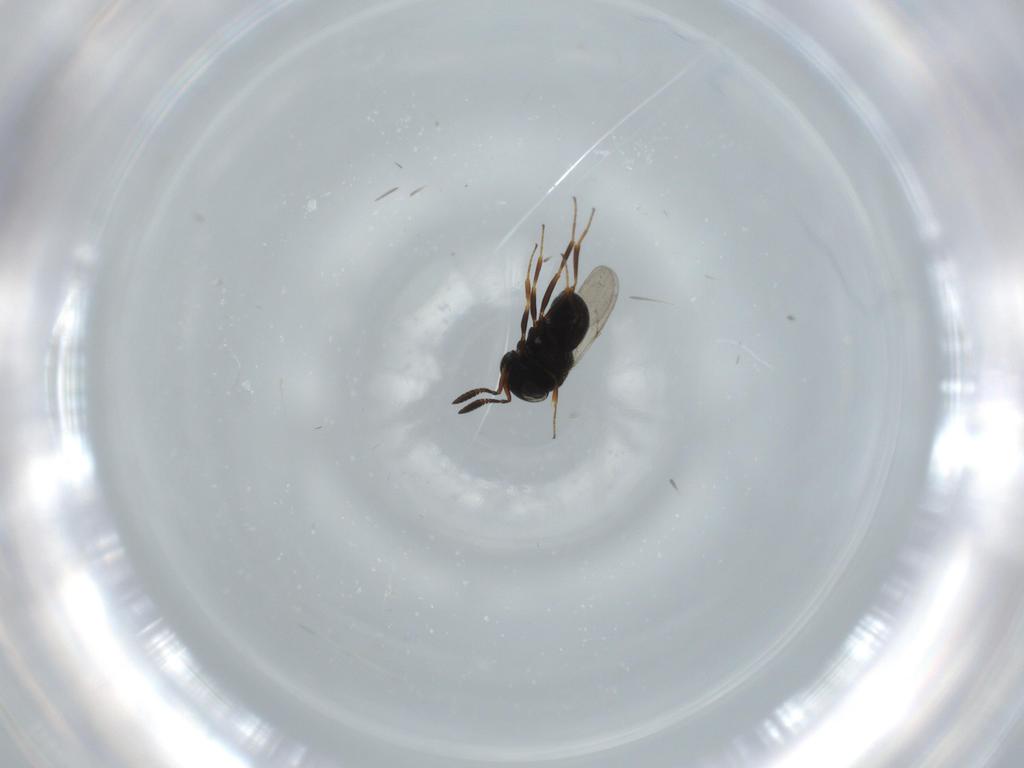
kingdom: Animalia
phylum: Arthropoda
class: Insecta
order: Hymenoptera
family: Scelionidae
